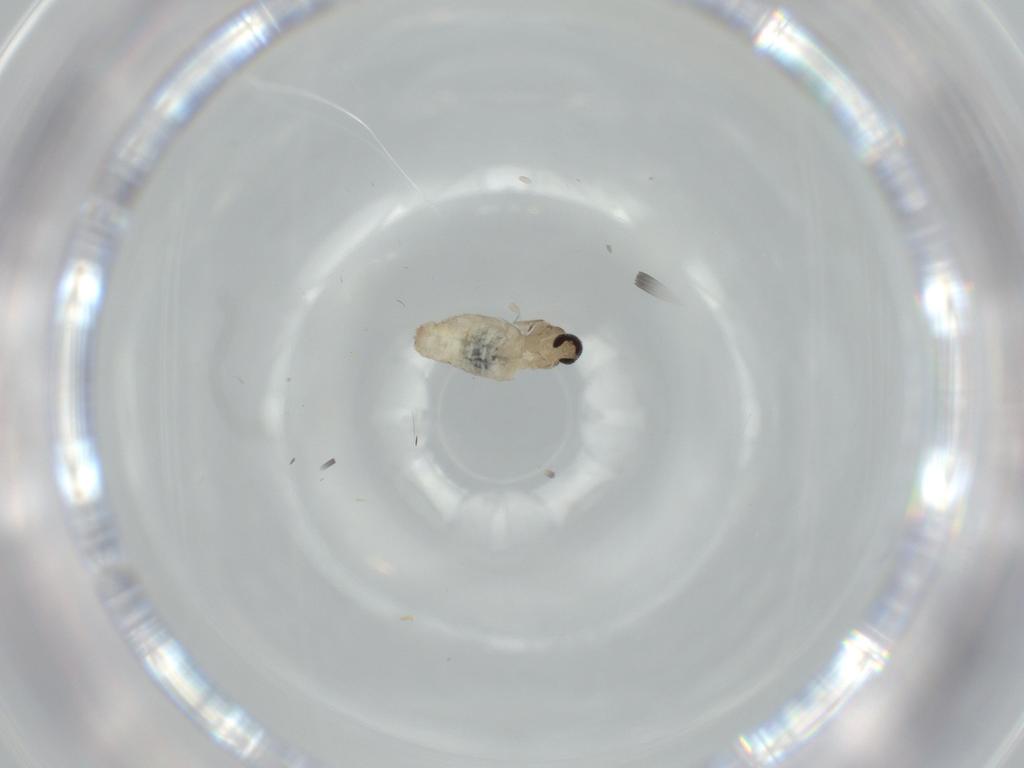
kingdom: Animalia
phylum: Arthropoda
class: Insecta
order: Diptera
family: Cecidomyiidae
